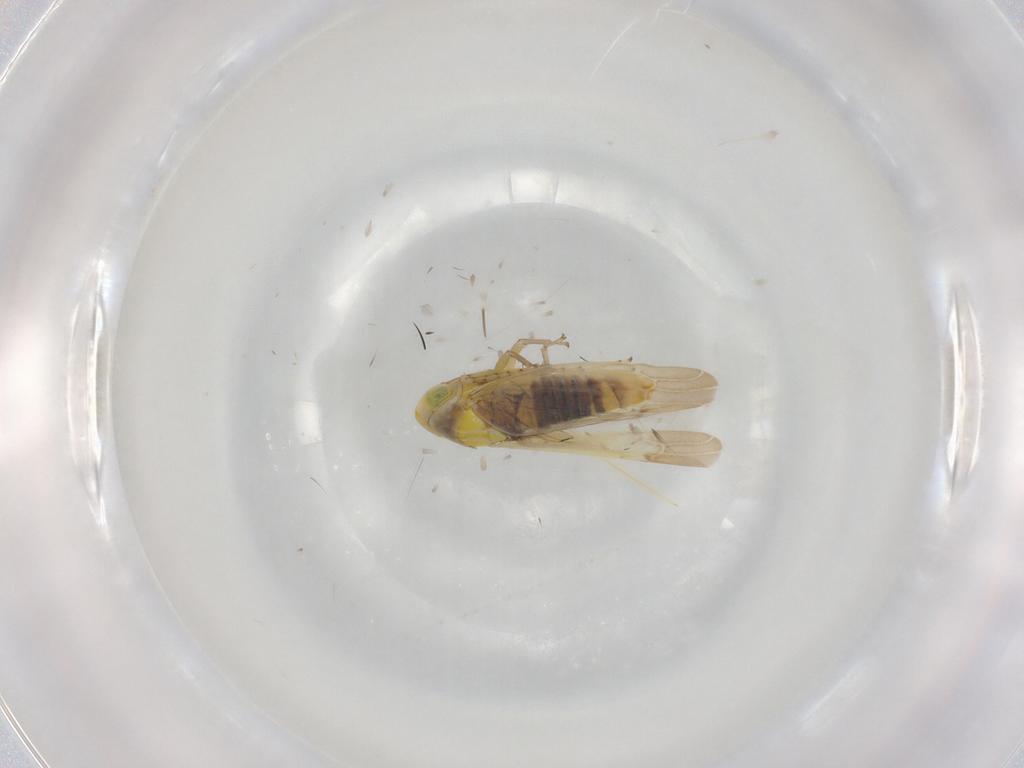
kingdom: Animalia
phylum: Arthropoda
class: Insecta
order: Hemiptera
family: Cicadellidae
